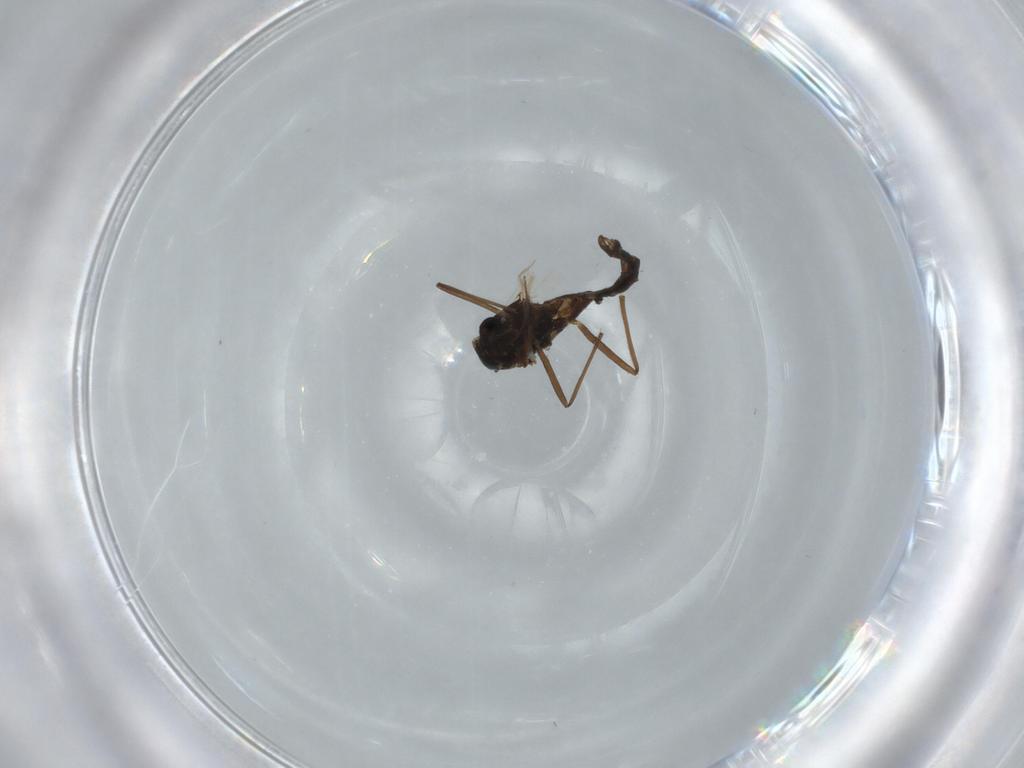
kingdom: Animalia
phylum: Arthropoda
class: Insecta
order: Diptera
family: Chironomidae
